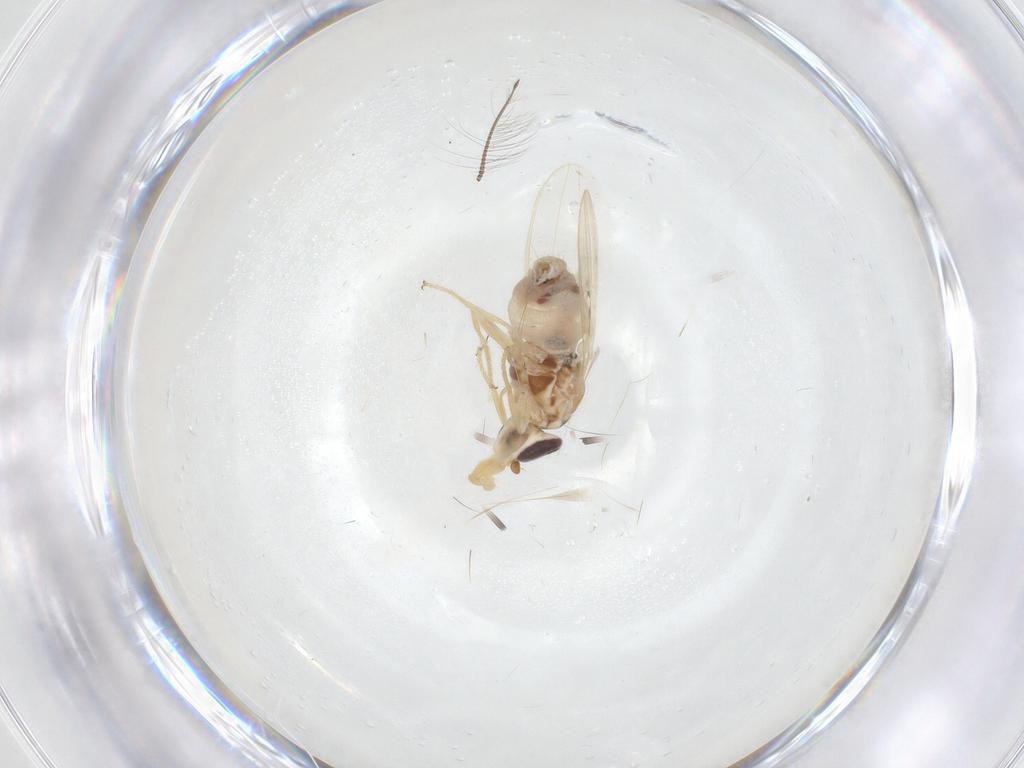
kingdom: Animalia
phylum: Arthropoda
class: Insecta
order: Diptera
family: Chloropidae
